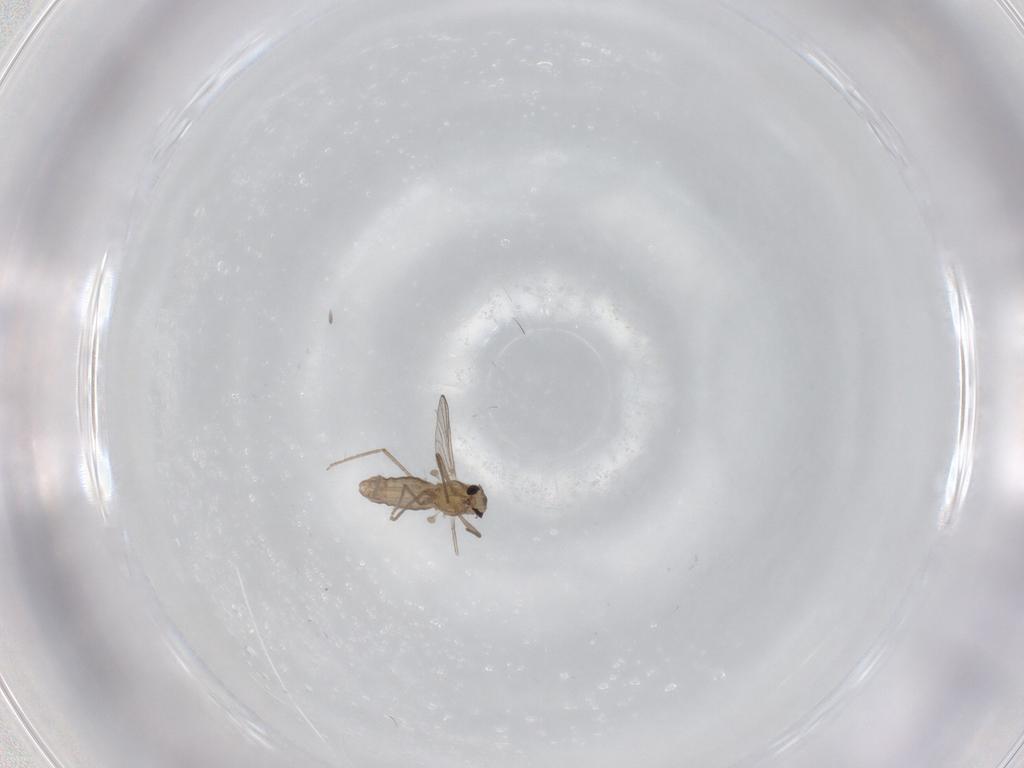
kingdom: Animalia
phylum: Arthropoda
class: Insecta
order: Diptera
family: Chironomidae
